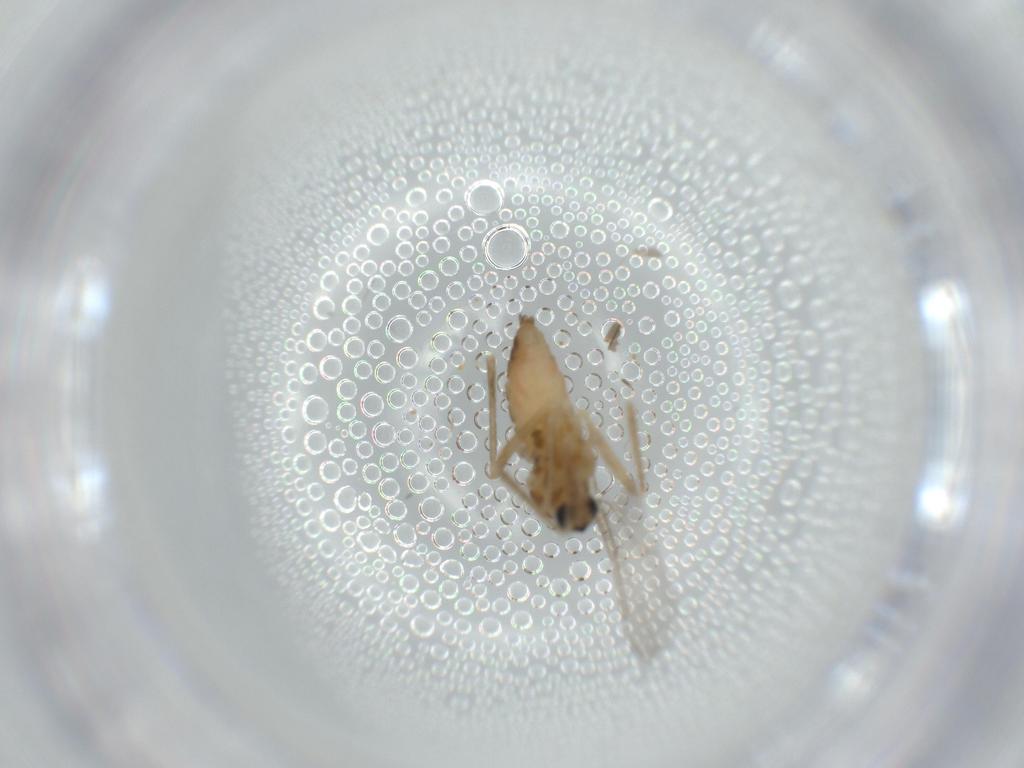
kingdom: Animalia
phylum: Arthropoda
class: Insecta
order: Diptera
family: Cecidomyiidae
